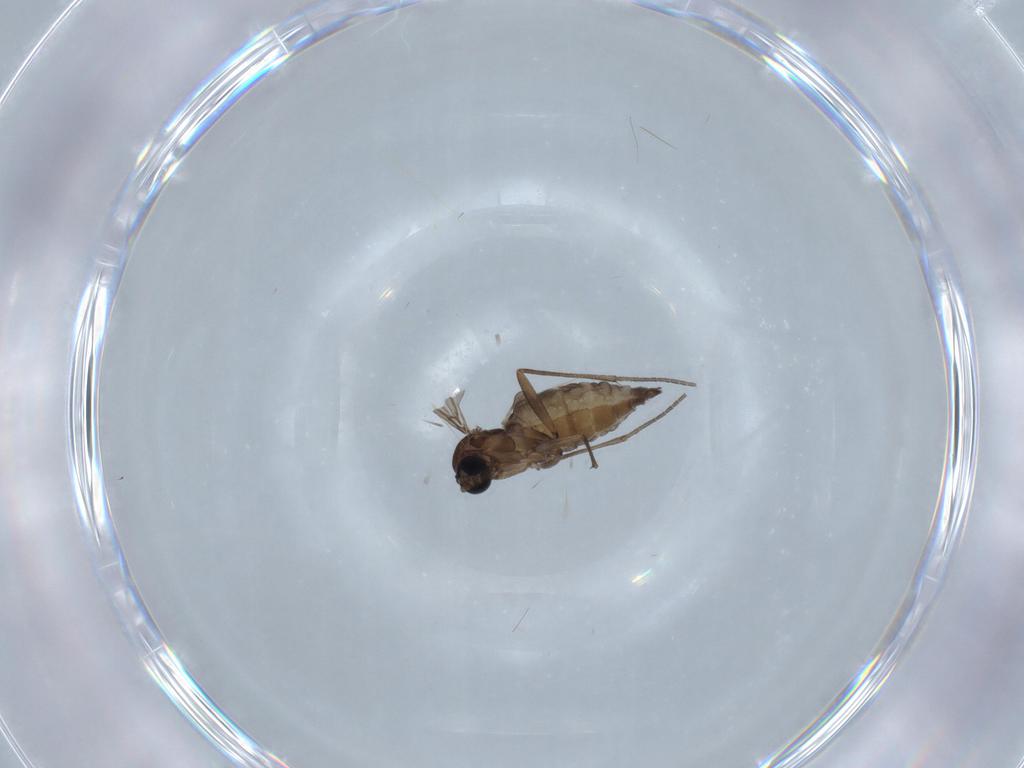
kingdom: Animalia
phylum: Arthropoda
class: Insecta
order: Diptera
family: Sciaridae
